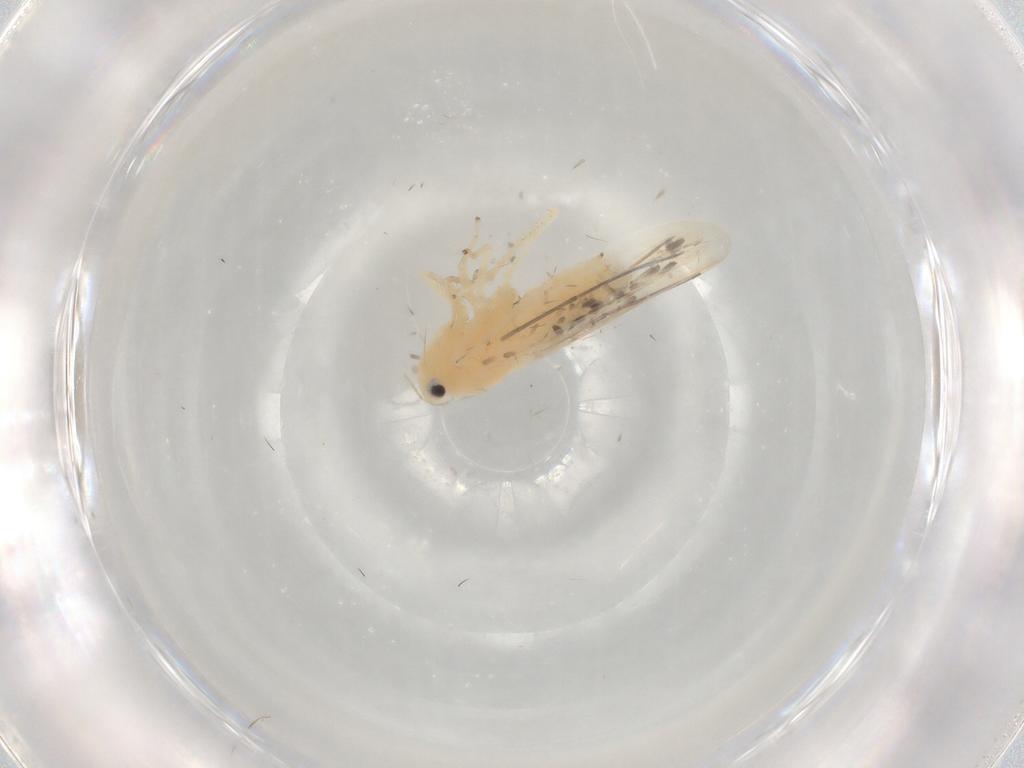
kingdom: Animalia
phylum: Arthropoda
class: Insecta
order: Hemiptera
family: Cicadellidae
